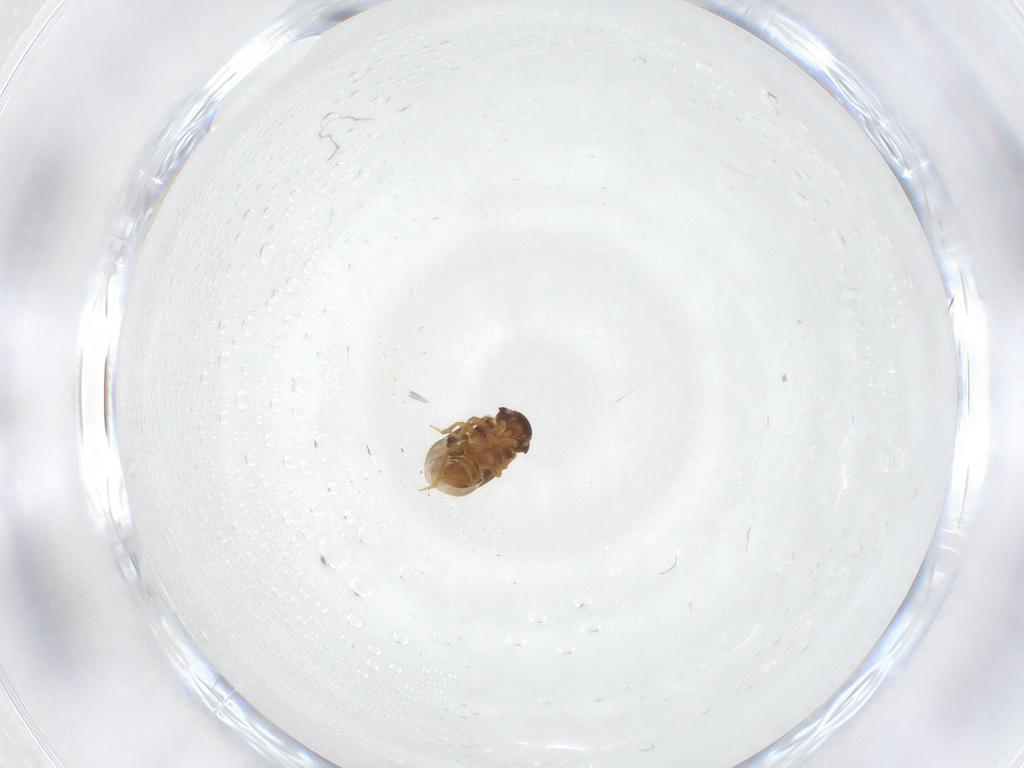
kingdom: Animalia
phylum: Arthropoda
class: Insecta
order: Hemiptera
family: Schizopteridae
